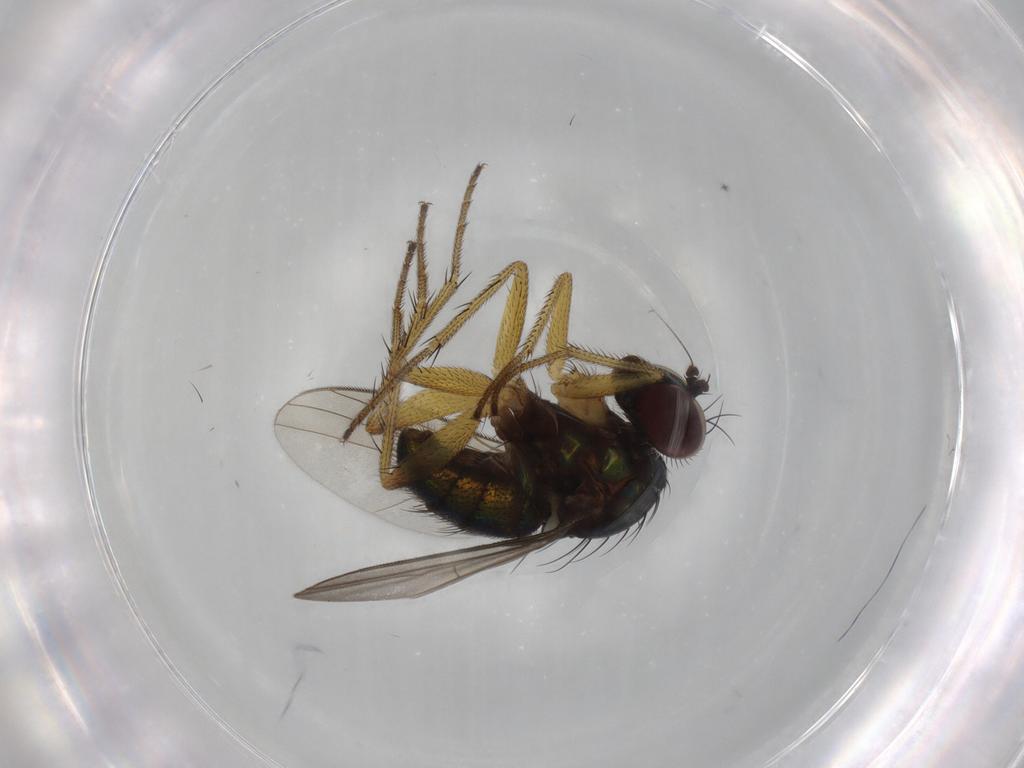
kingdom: Animalia
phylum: Arthropoda
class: Insecta
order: Diptera
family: Dolichopodidae
